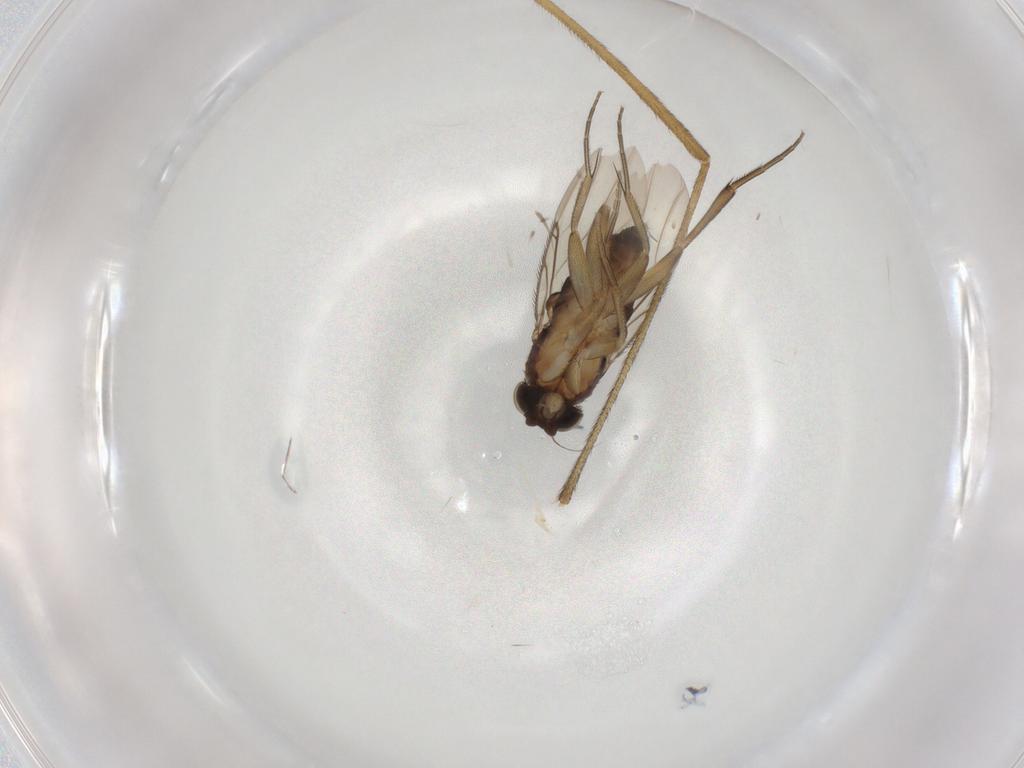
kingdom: Animalia
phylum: Arthropoda
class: Insecta
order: Diptera
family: Phoridae
